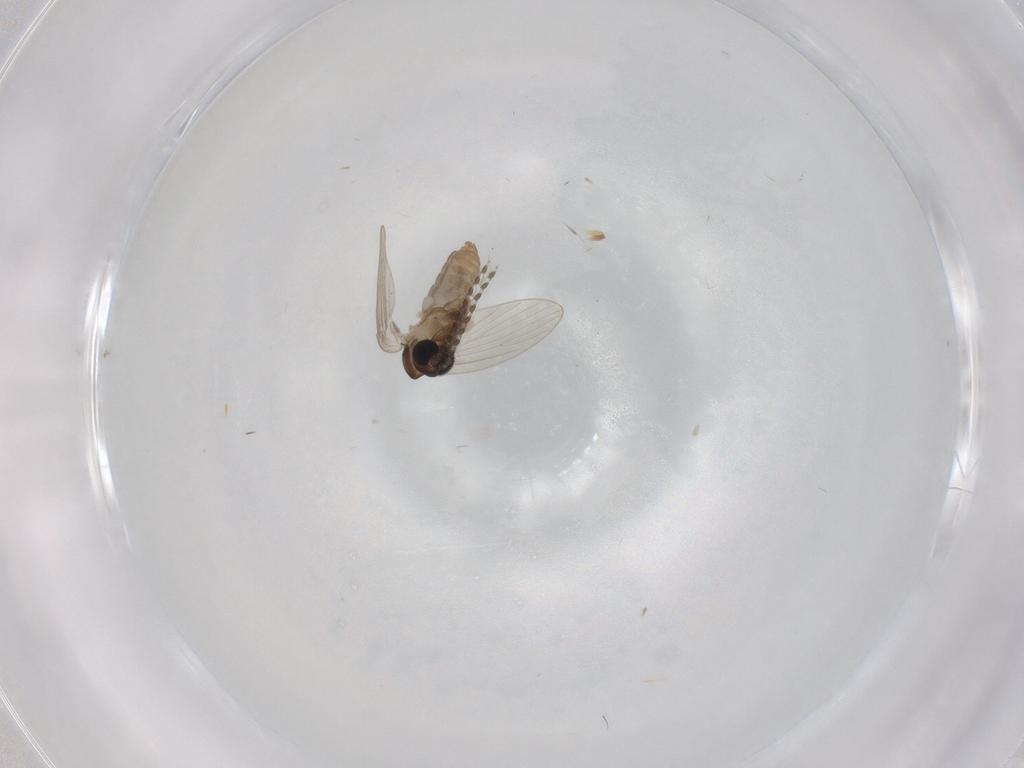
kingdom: Animalia
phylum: Arthropoda
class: Insecta
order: Diptera
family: Psychodidae
